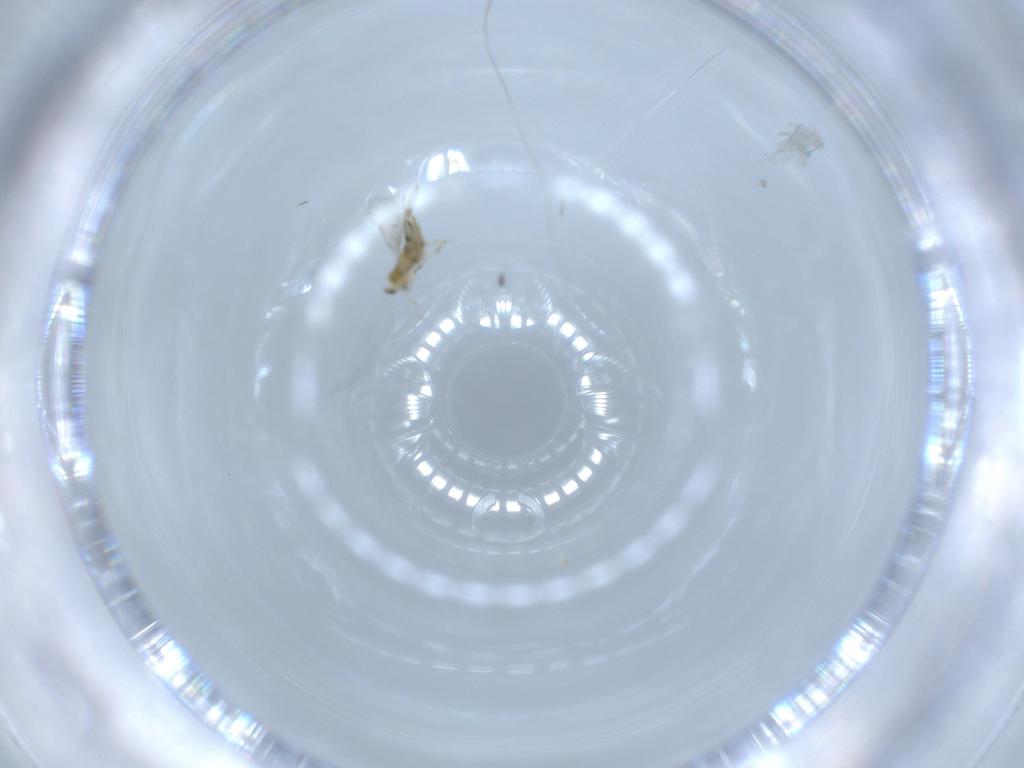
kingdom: Animalia
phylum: Arthropoda
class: Insecta
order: Hymenoptera
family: Aphelinidae
